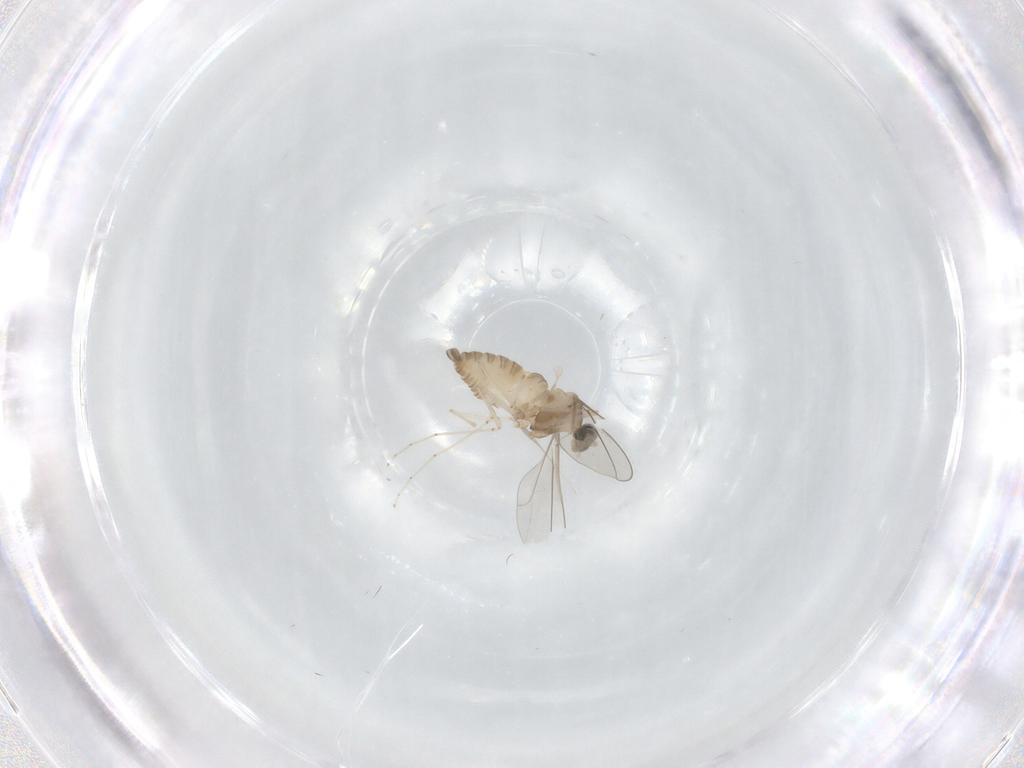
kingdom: Animalia
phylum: Arthropoda
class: Insecta
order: Diptera
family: Cecidomyiidae
